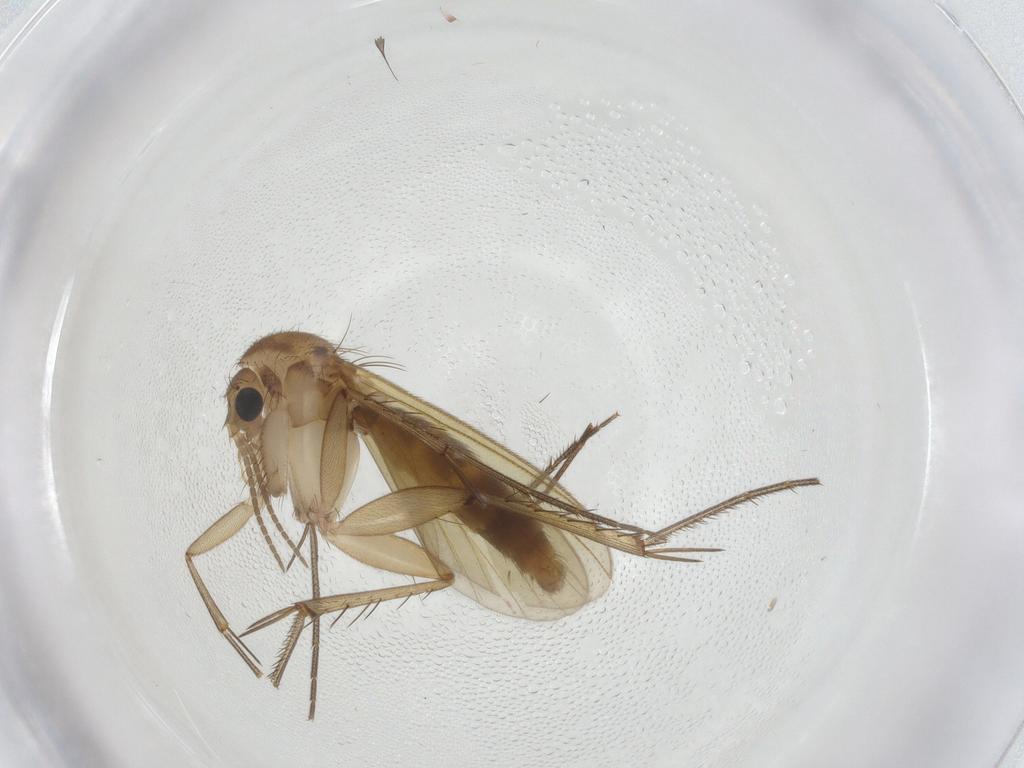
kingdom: Animalia
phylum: Arthropoda
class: Insecta
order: Diptera
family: Mycetophilidae
